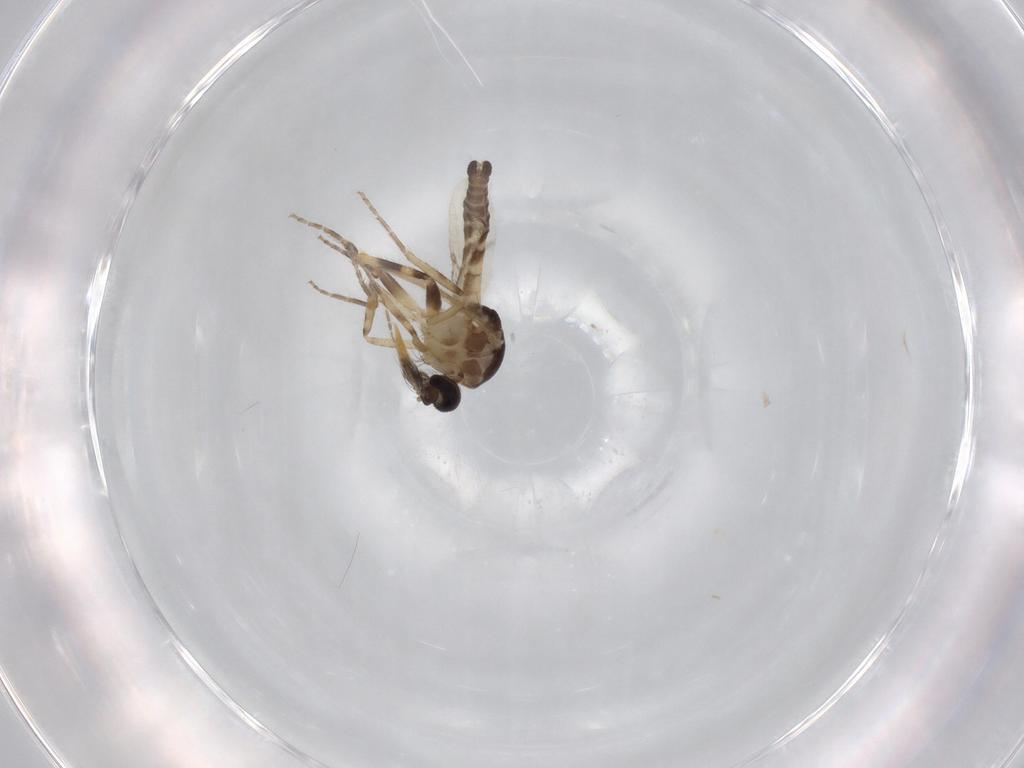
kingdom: Animalia
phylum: Arthropoda
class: Insecta
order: Diptera
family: Ceratopogonidae
